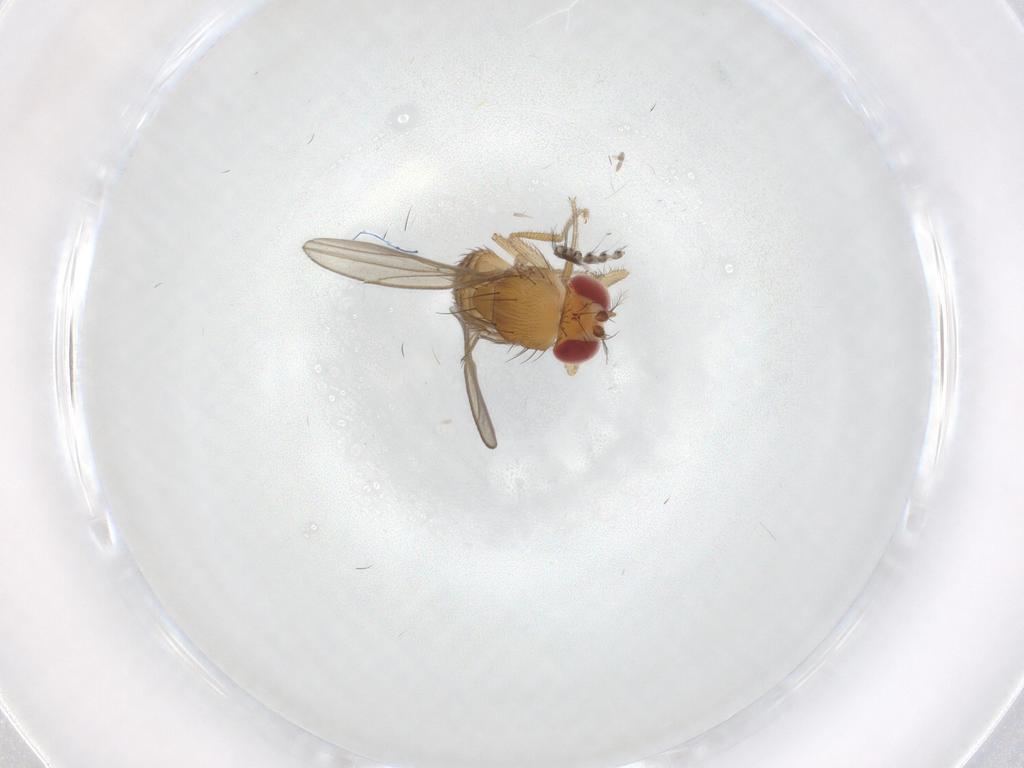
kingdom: Animalia
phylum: Arthropoda
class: Insecta
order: Diptera
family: Drosophilidae
